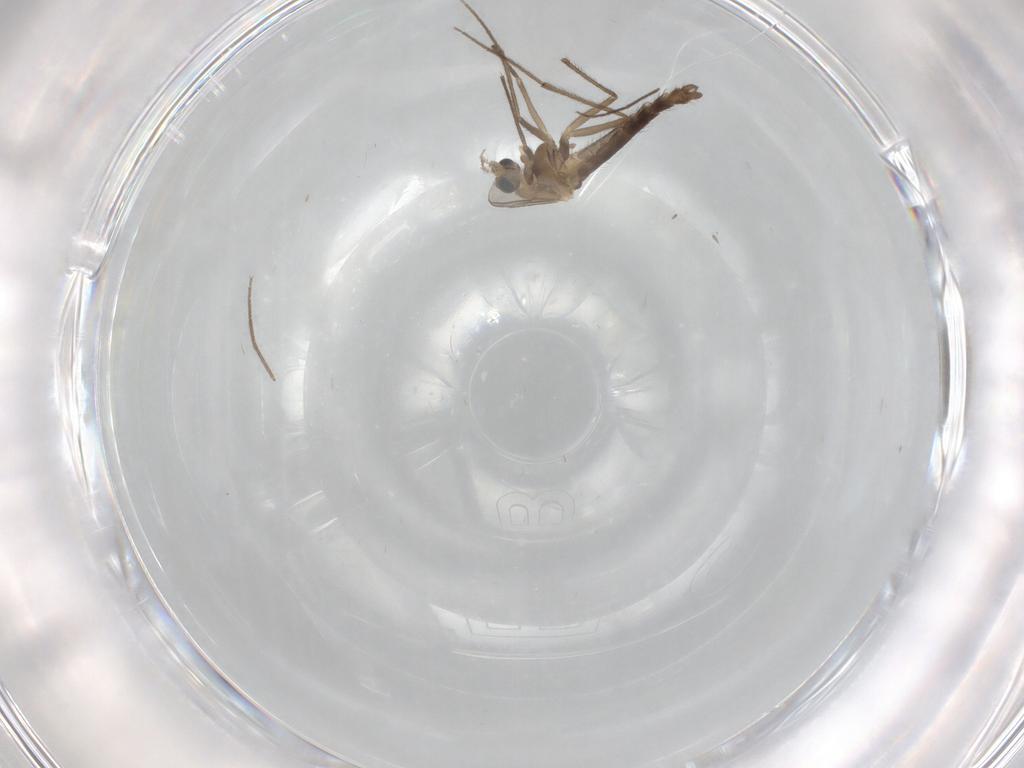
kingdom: Animalia
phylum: Arthropoda
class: Insecta
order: Diptera
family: Chironomidae
